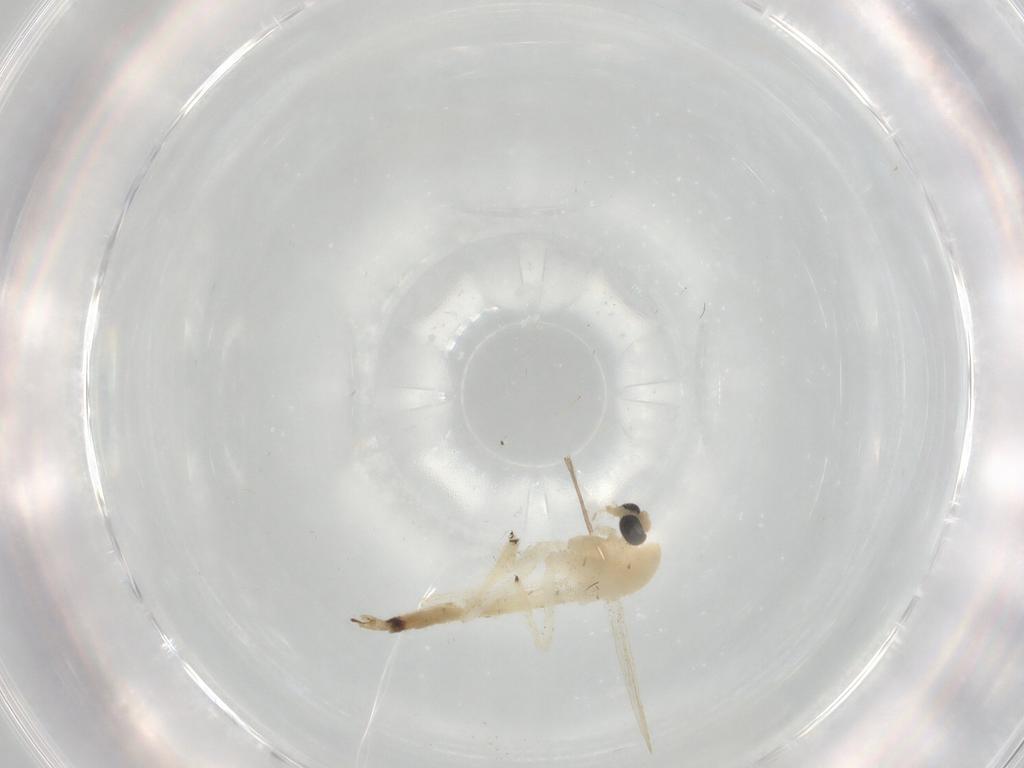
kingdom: Animalia
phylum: Arthropoda
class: Insecta
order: Diptera
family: Chironomidae
